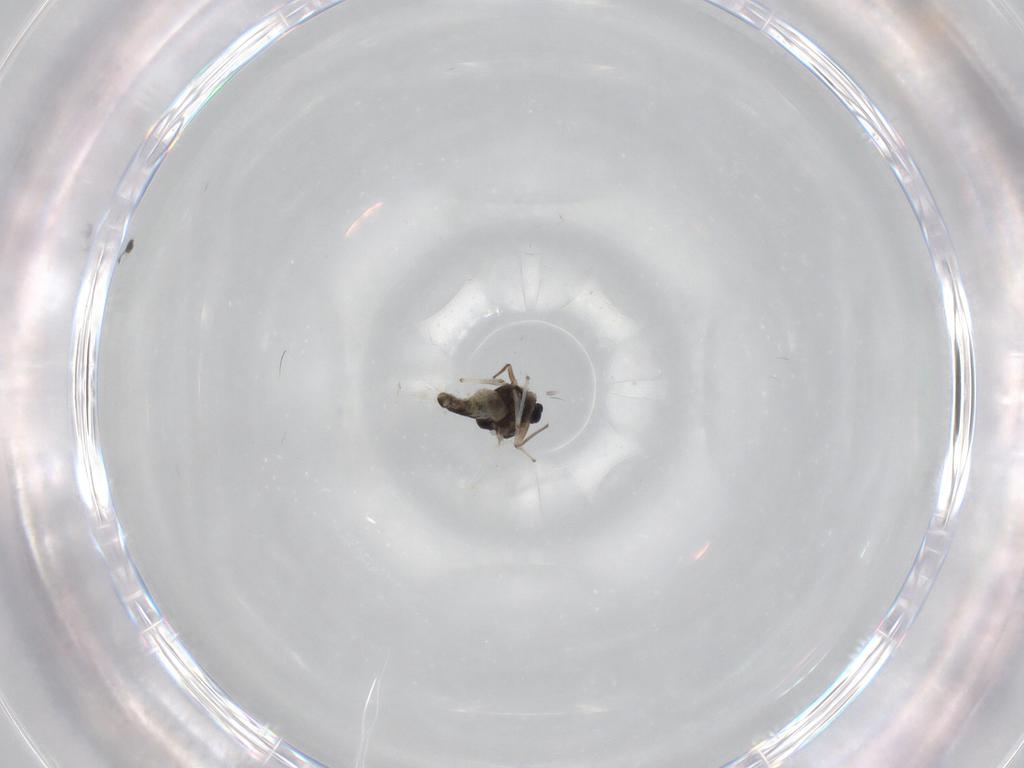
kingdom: Animalia
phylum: Arthropoda
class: Insecta
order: Diptera
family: Chironomidae
